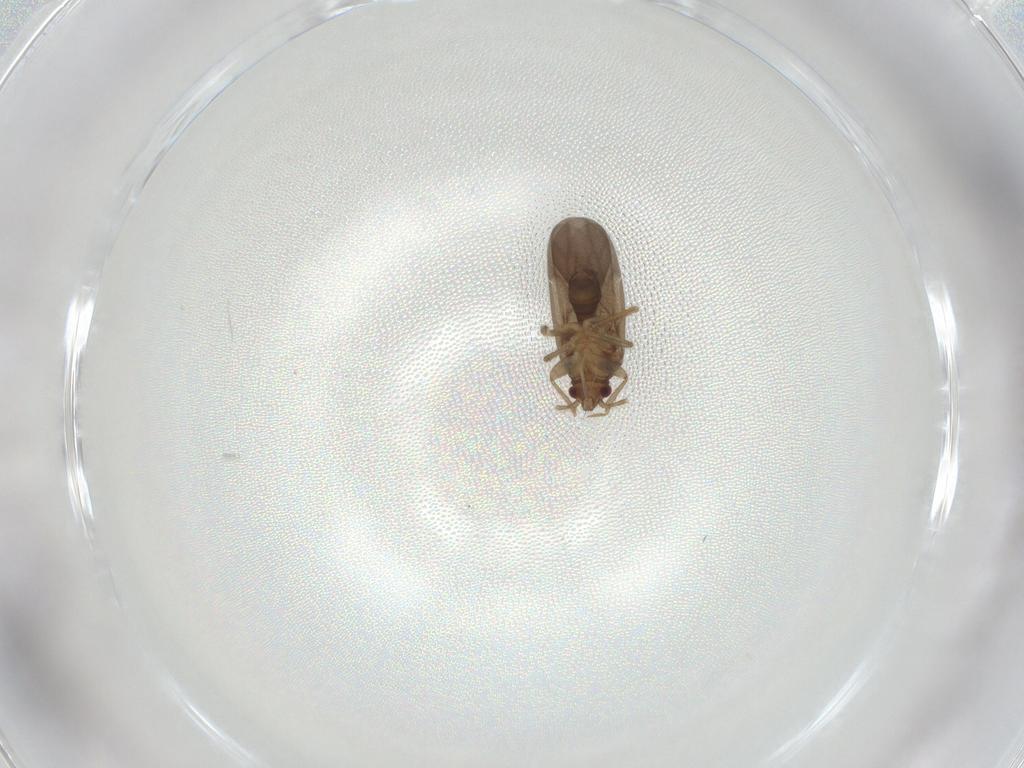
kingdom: Animalia
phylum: Arthropoda
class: Insecta
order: Hemiptera
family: Ceratocombidae
